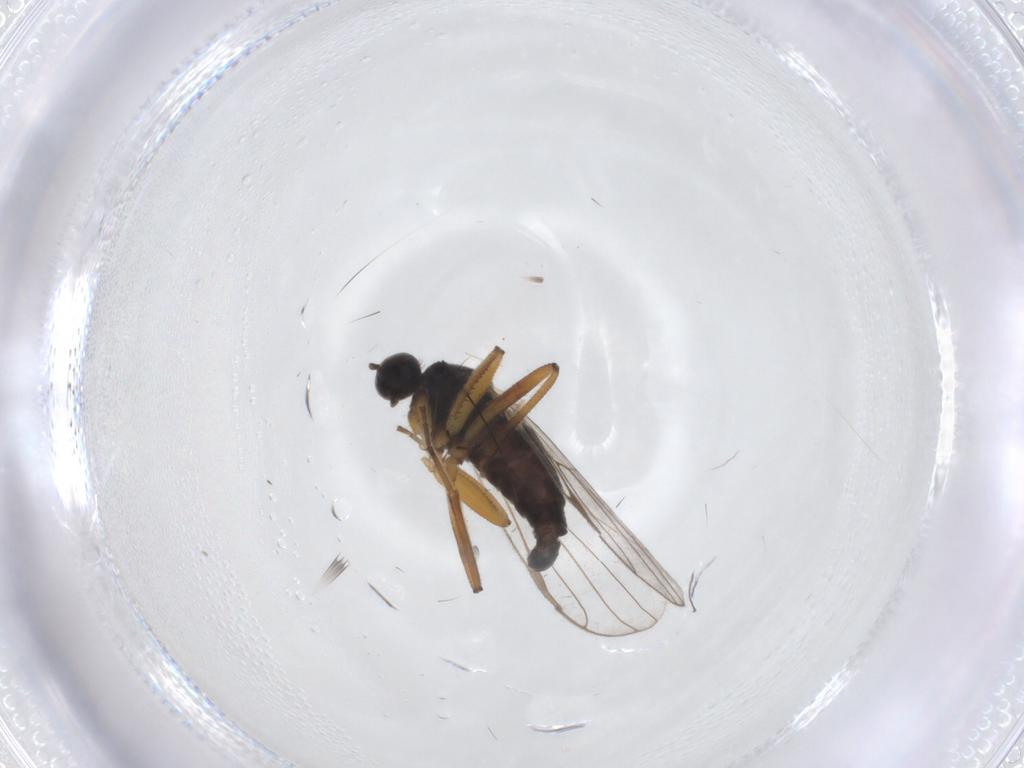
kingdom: Animalia
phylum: Arthropoda
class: Insecta
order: Diptera
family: Hybotidae
